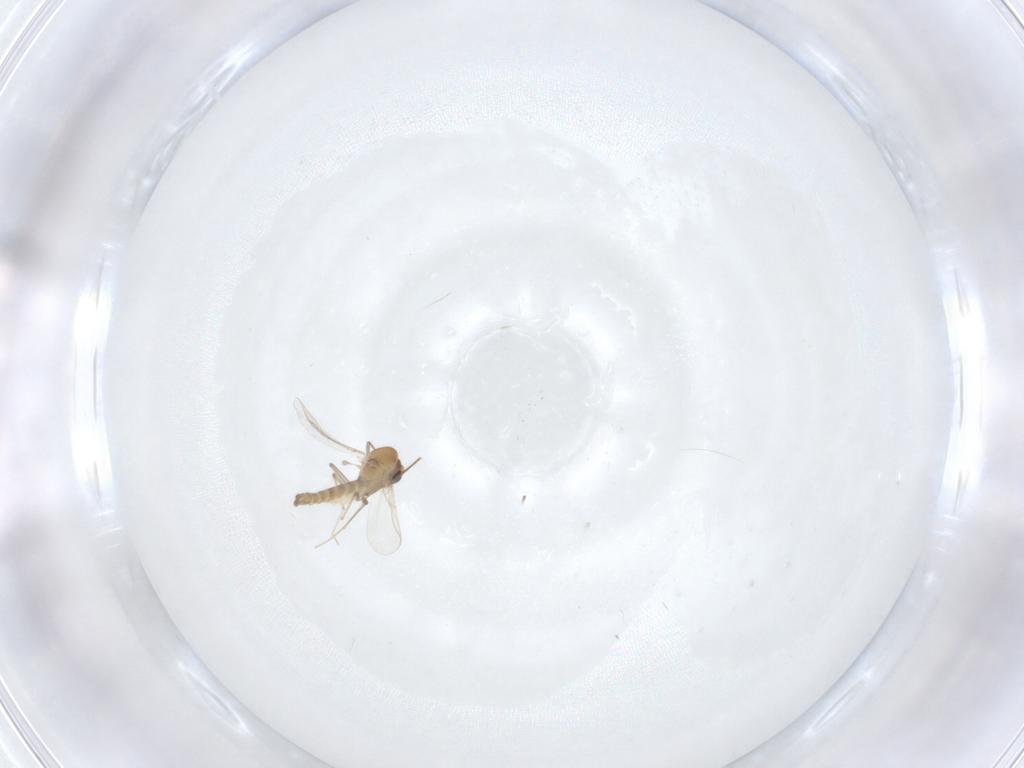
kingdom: Animalia
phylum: Arthropoda
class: Insecta
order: Diptera
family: Chironomidae
